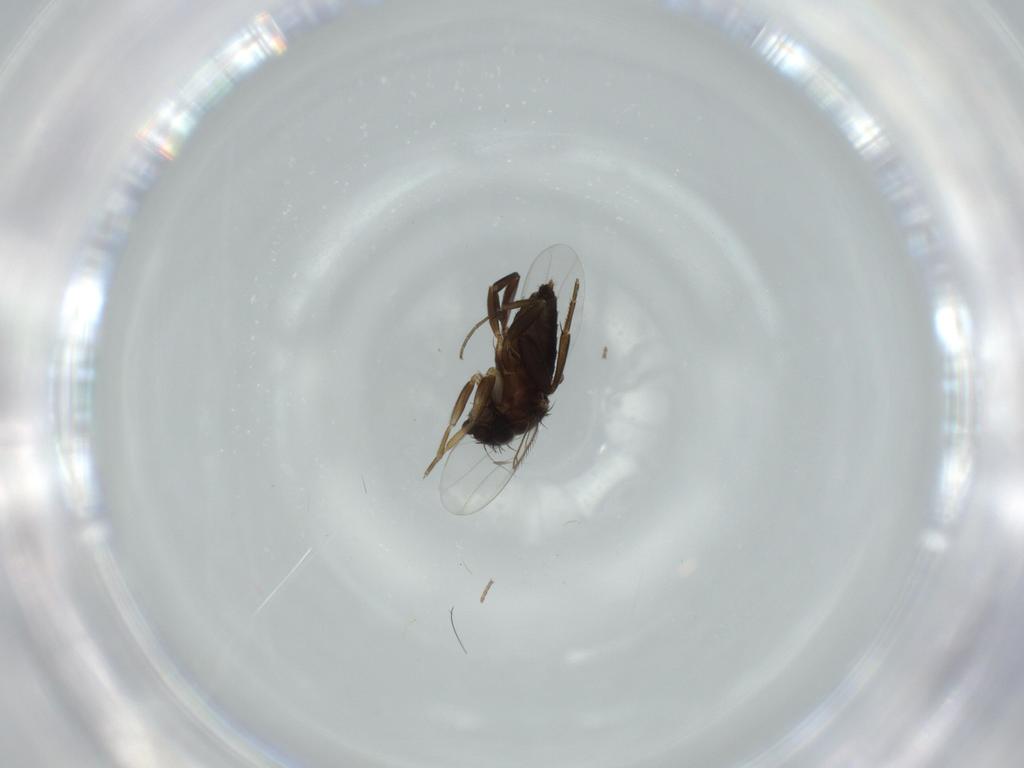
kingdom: Animalia
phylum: Arthropoda
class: Insecta
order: Diptera
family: Phoridae
